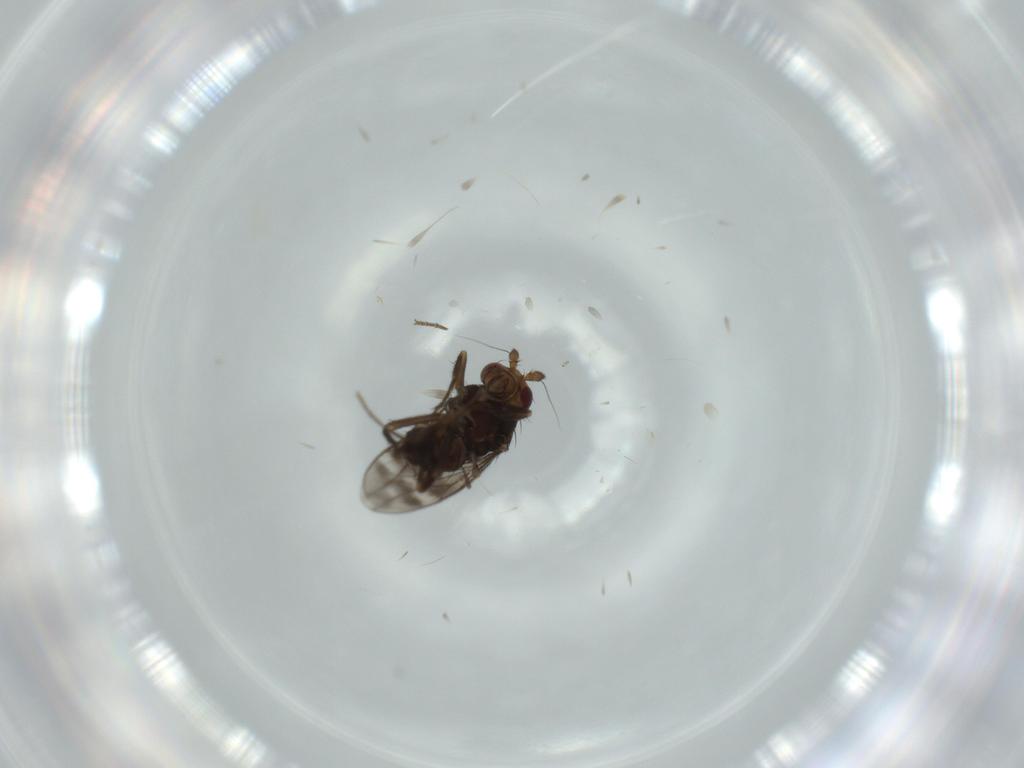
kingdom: Animalia
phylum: Arthropoda
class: Insecta
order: Diptera
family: Sphaeroceridae
